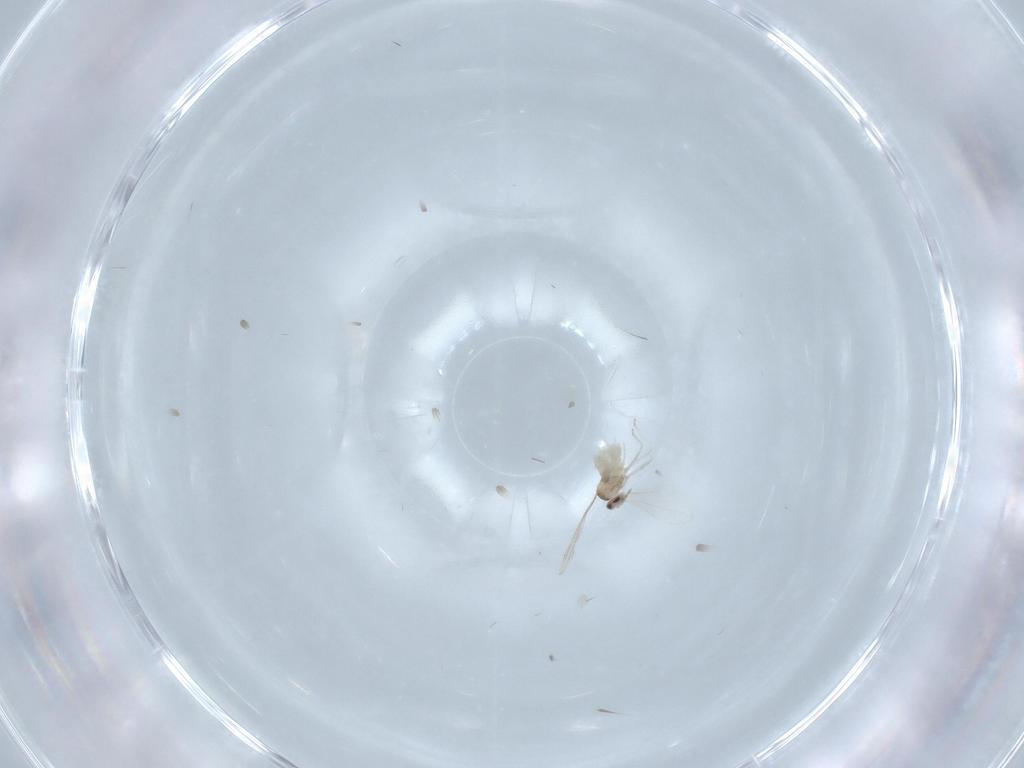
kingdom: Animalia
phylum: Arthropoda
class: Insecta
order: Diptera
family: Cecidomyiidae
